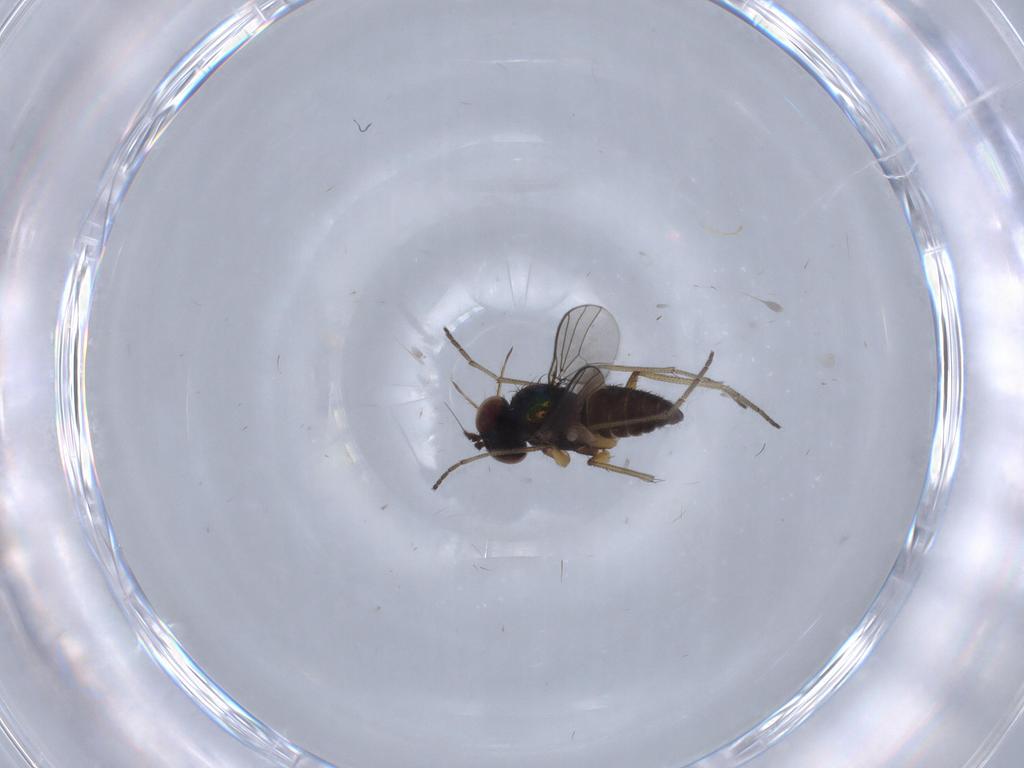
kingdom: Animalia
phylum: Arthropoda
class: Insecta
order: Diptera
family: Dolichopodidae
